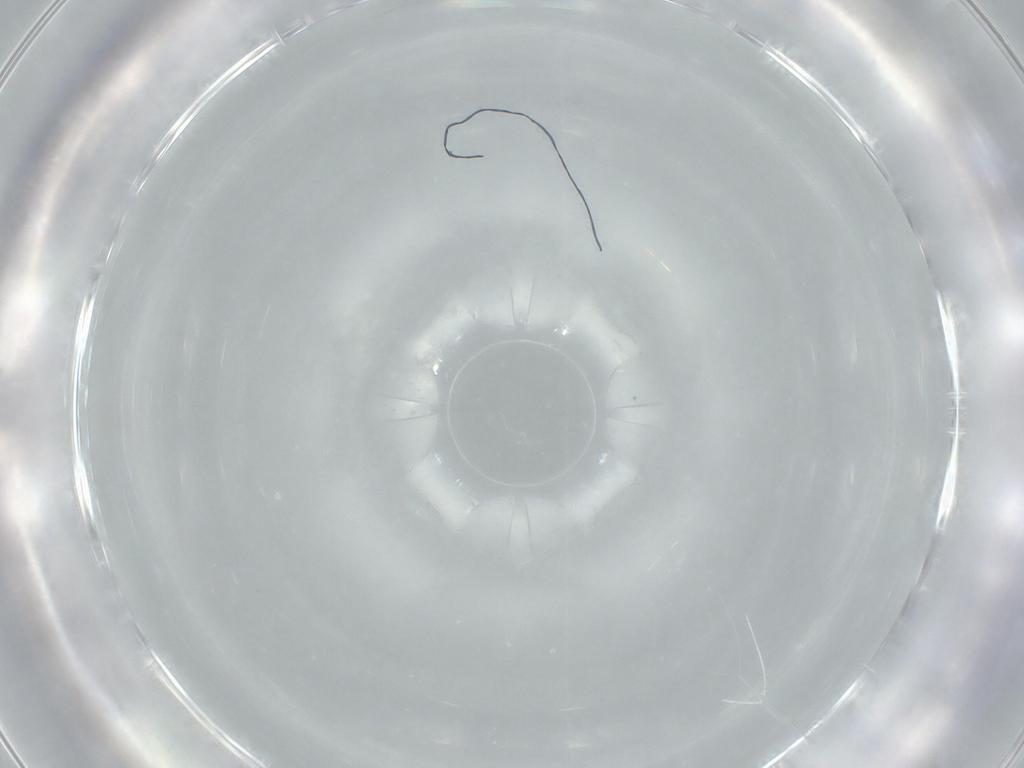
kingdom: Animalia
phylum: Arthropoda
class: Insecta
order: Diptera
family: Cecidomyiidae
